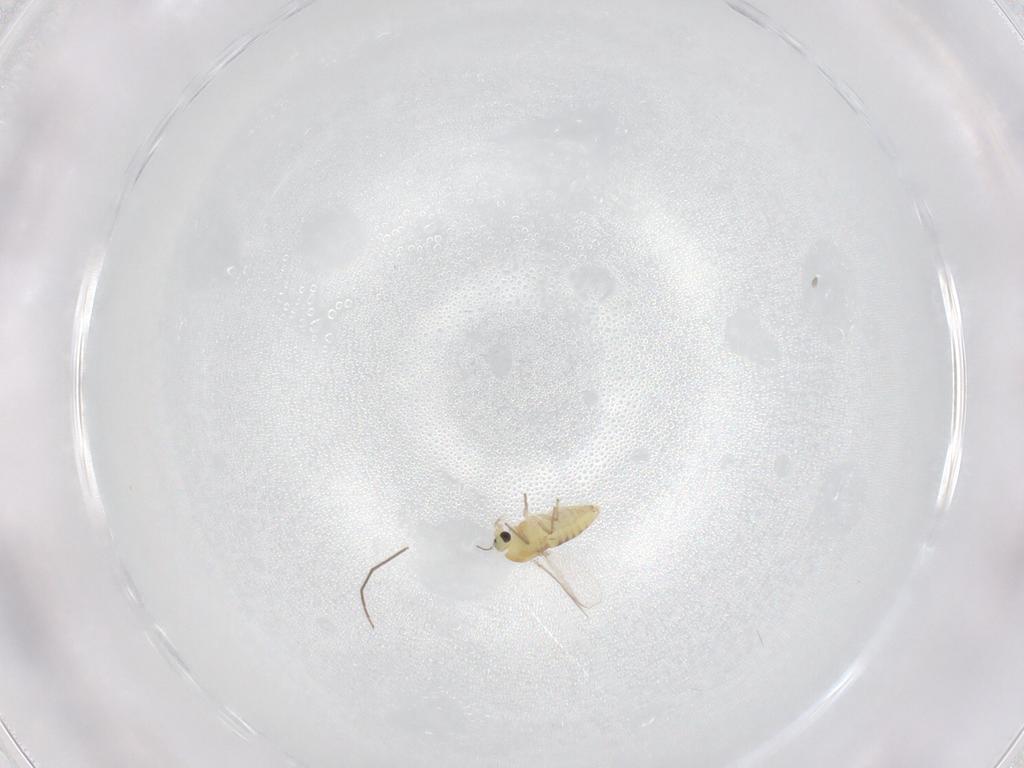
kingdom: Animalia
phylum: Arthropoda
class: Insecta
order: Diptera
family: Chironomidae
